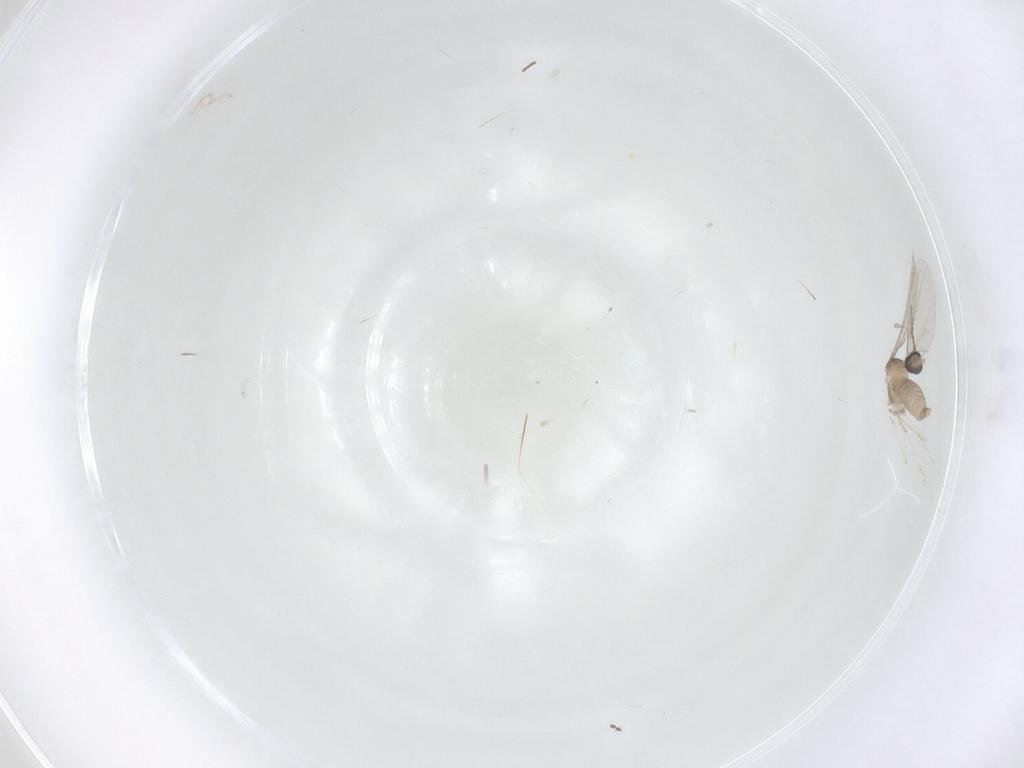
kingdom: Animalia
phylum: Arthropoda
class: Insecta
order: Diptera
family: Cecidomyiidae
